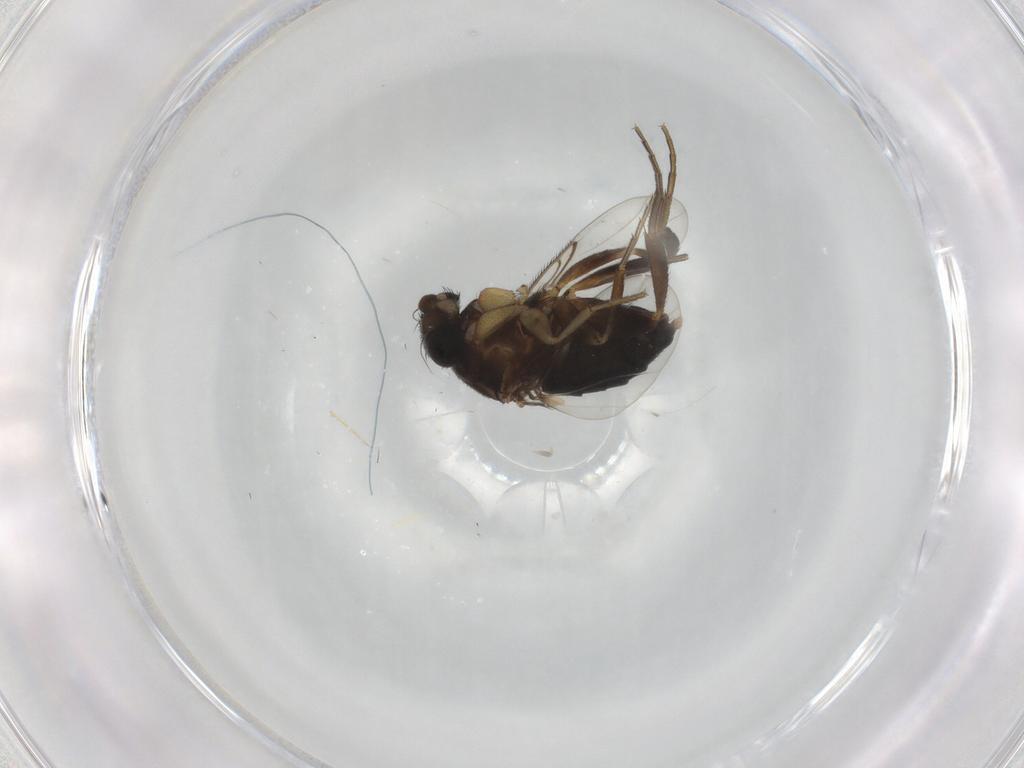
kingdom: Animalia
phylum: Arthropoda
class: Insecta
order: Diptera
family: Phoridae
